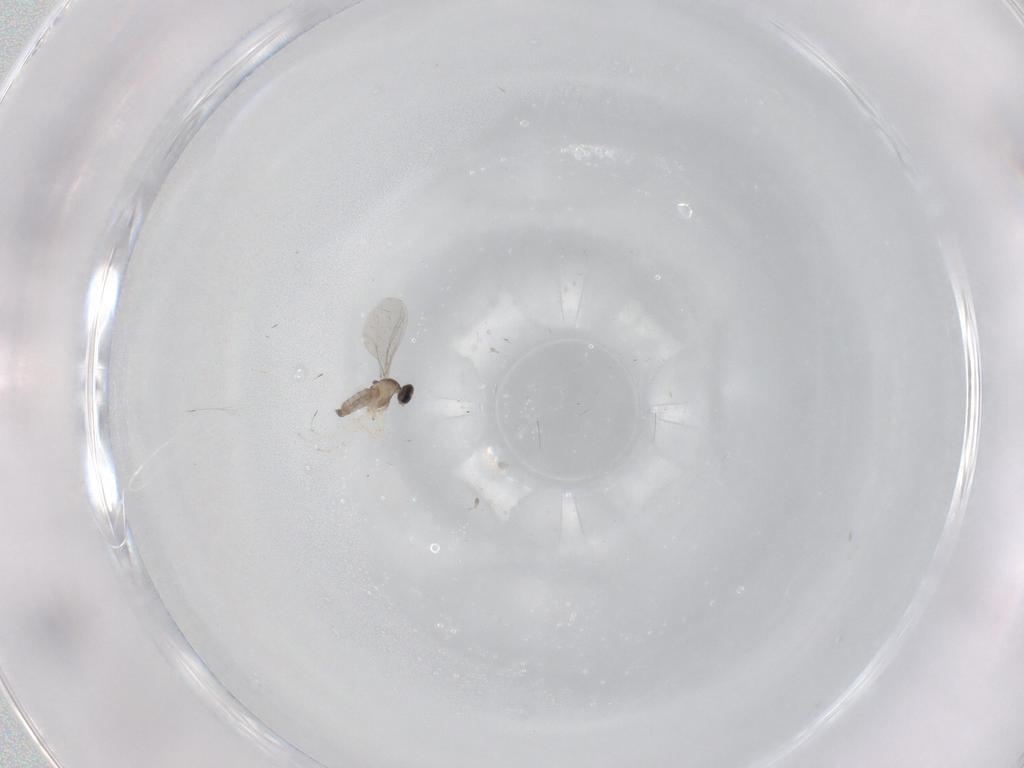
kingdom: Animalia
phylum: Arthropoda
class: Insecta
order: Diptera
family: Cecidomyiidae
